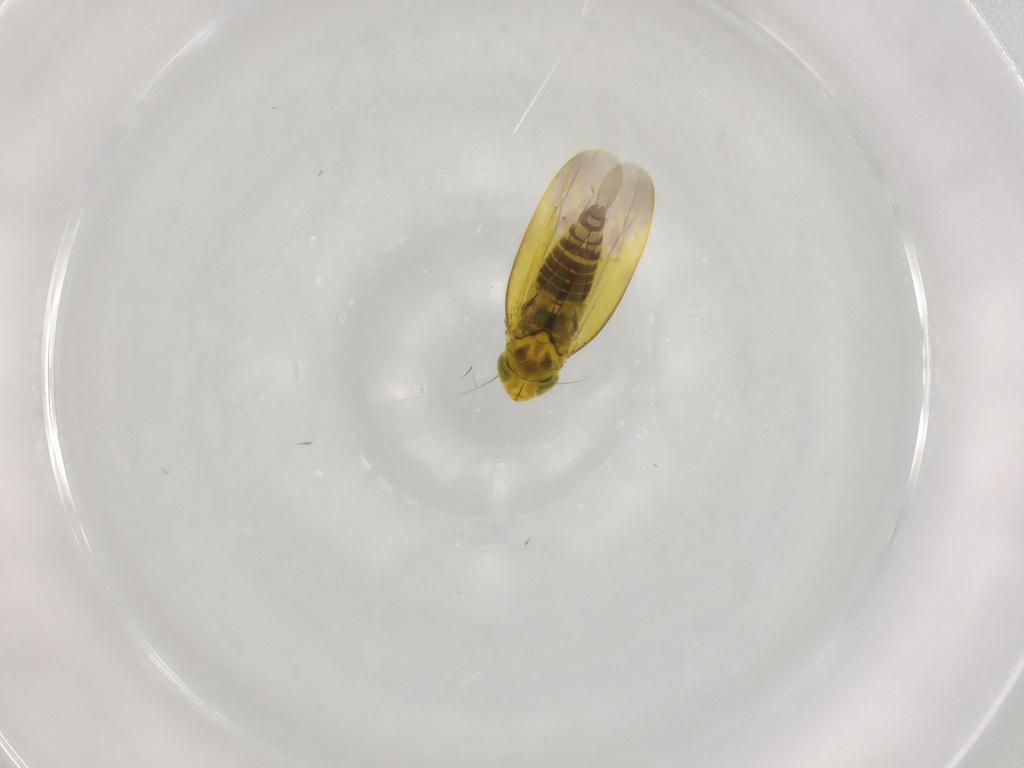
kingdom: Animalia
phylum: Arthropoda
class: Insecta
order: Hemiptera
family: Cicadellidae
